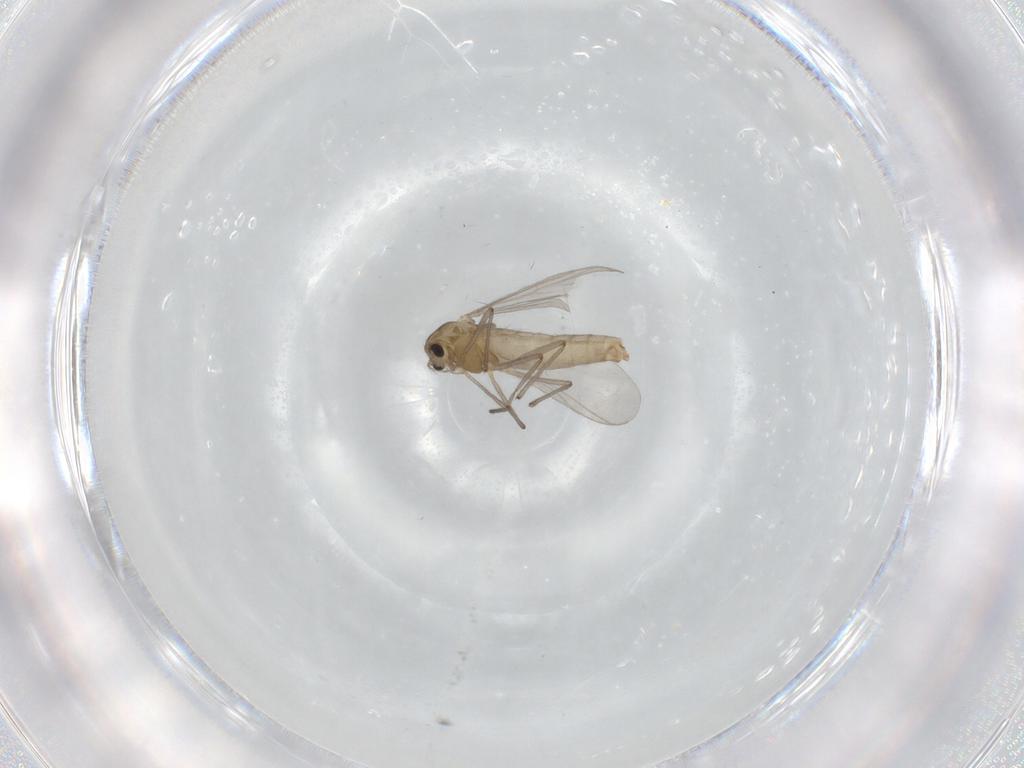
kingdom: Animalia
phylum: Arthropoda
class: Insecta
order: Diptera
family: Chironomidae
